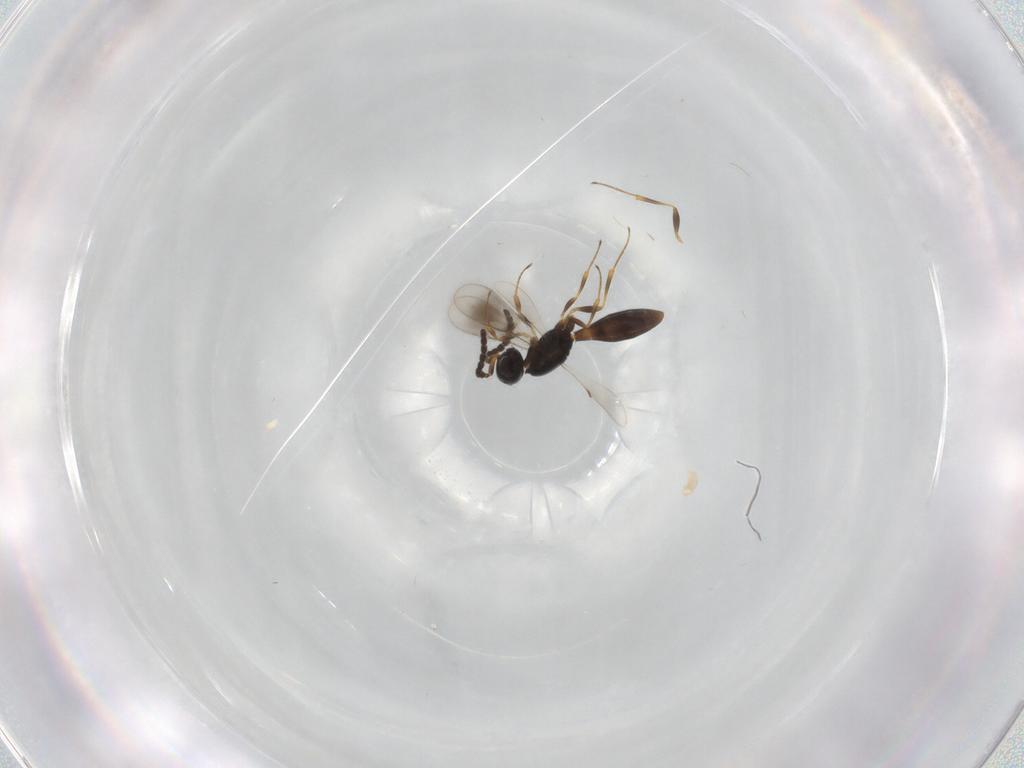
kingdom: Animalia
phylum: Arthropoda
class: Insecta
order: Hymenoptera
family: Scelionidae
